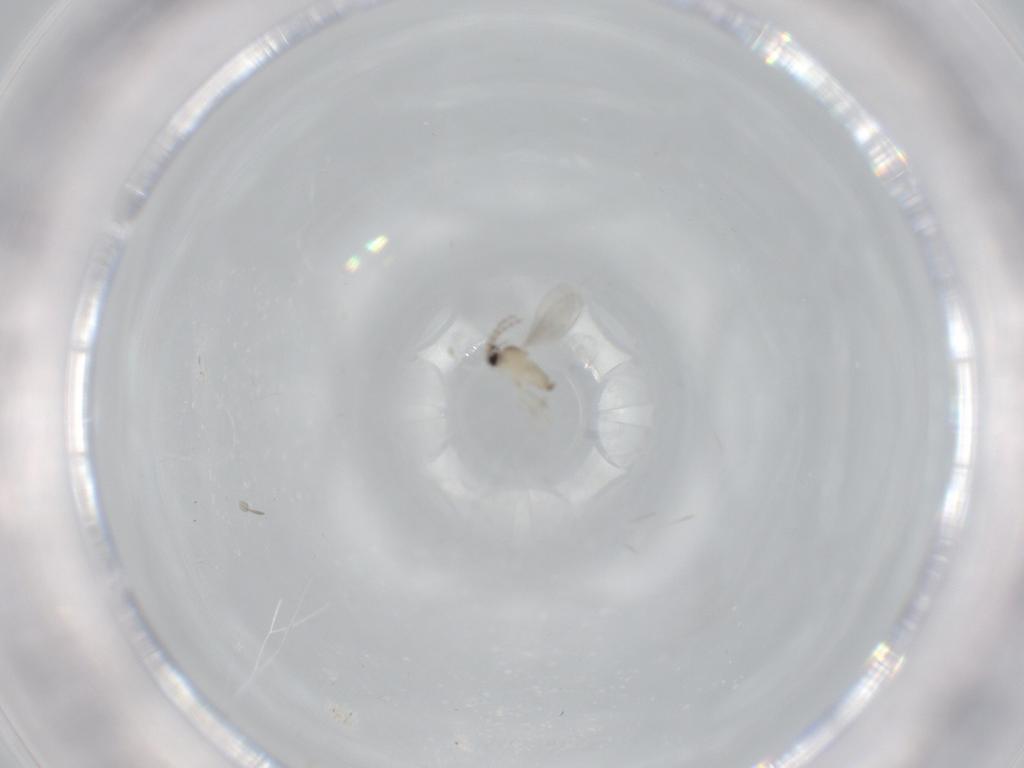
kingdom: Animalia
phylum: Arthropoda
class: Insecta
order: Diptera
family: Cecidomyiidae
